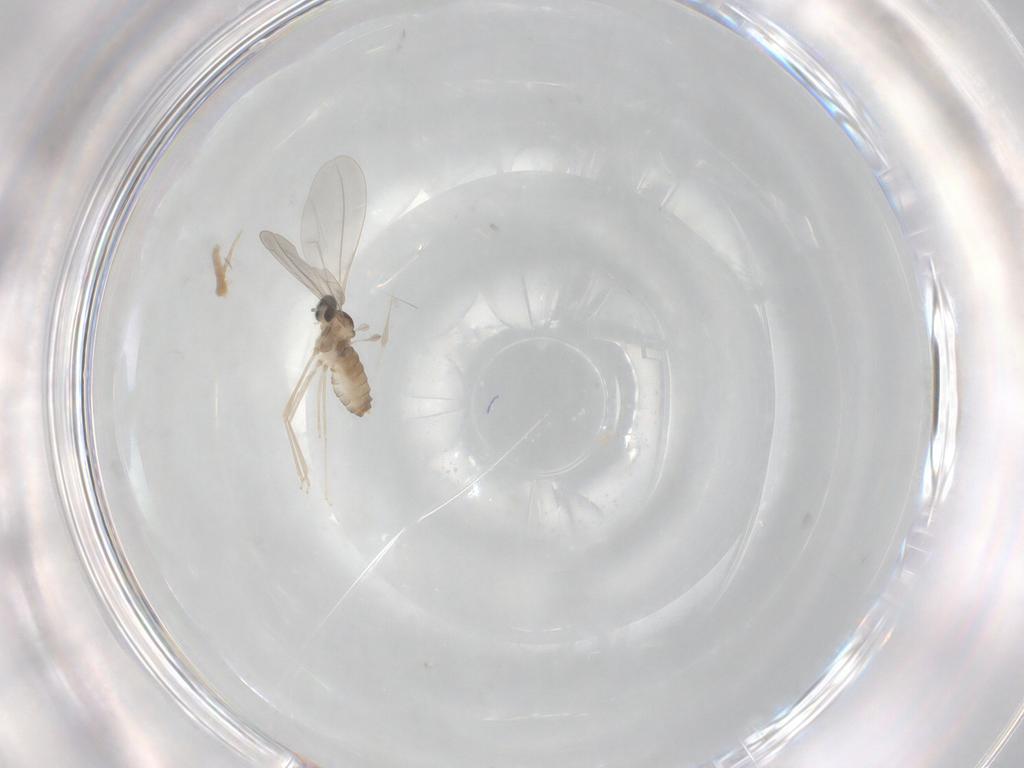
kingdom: Animalia
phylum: Arthropoda
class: Insecta
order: Diptera
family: Cecidomyiidae
